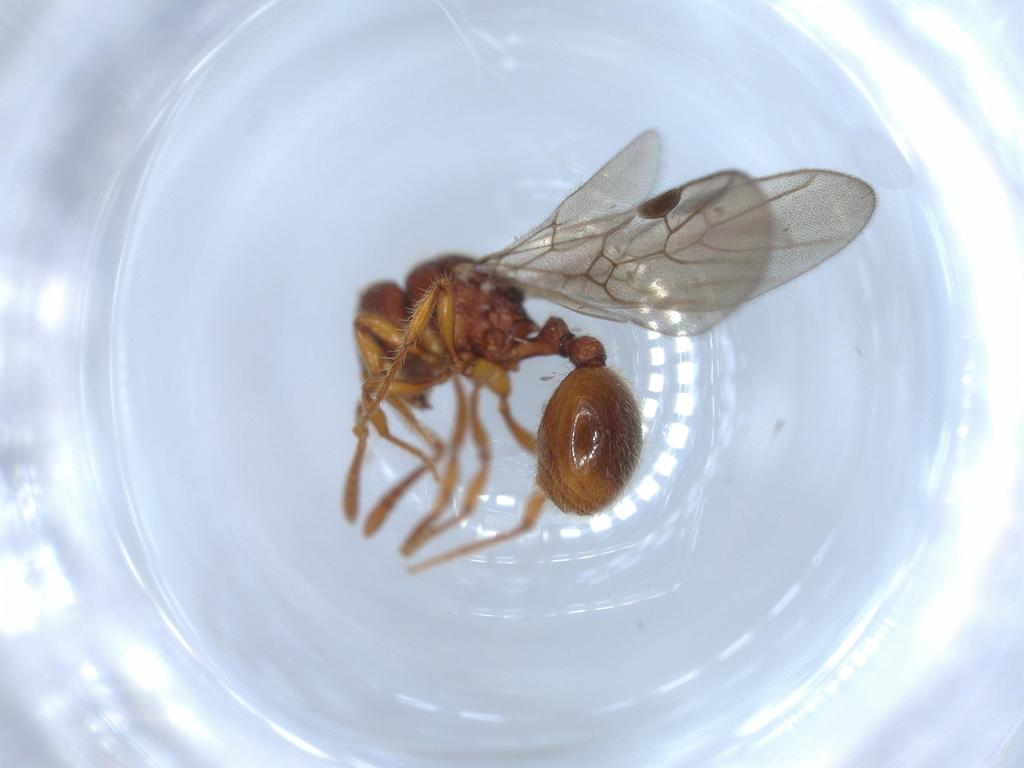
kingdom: Animalia
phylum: Arthropoda
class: Insecta
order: Hymenoptera
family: Formicidae
